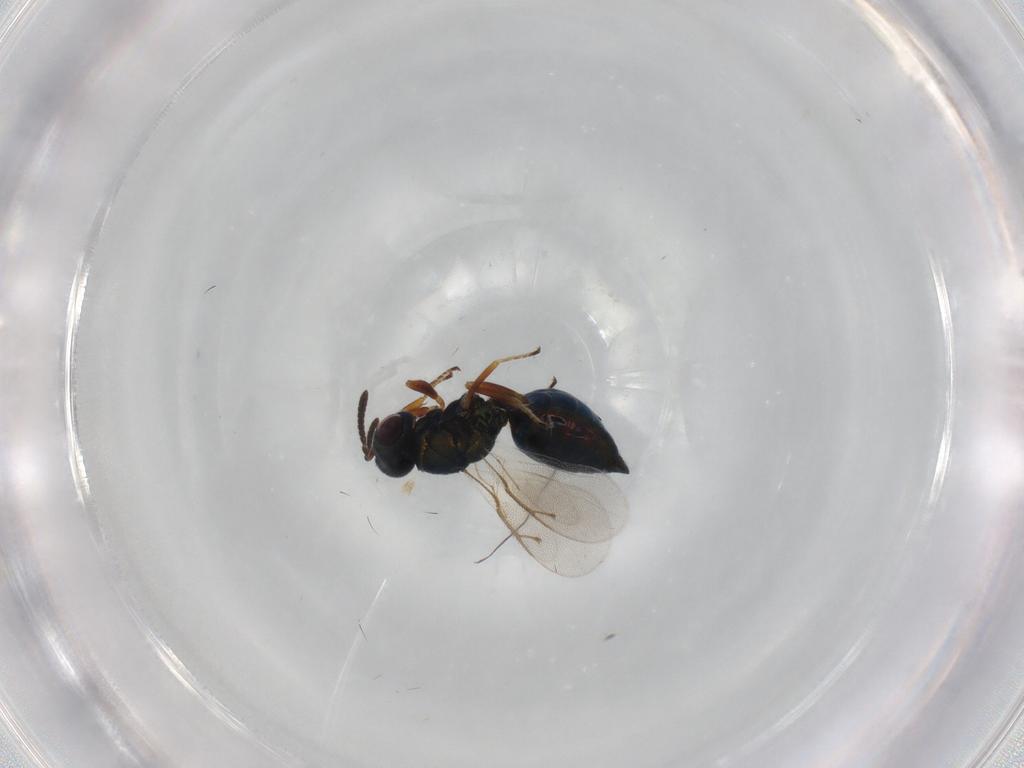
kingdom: Animalia
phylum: Arthropoda
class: Insecta
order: Hymenoptera
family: Pteromalidae
